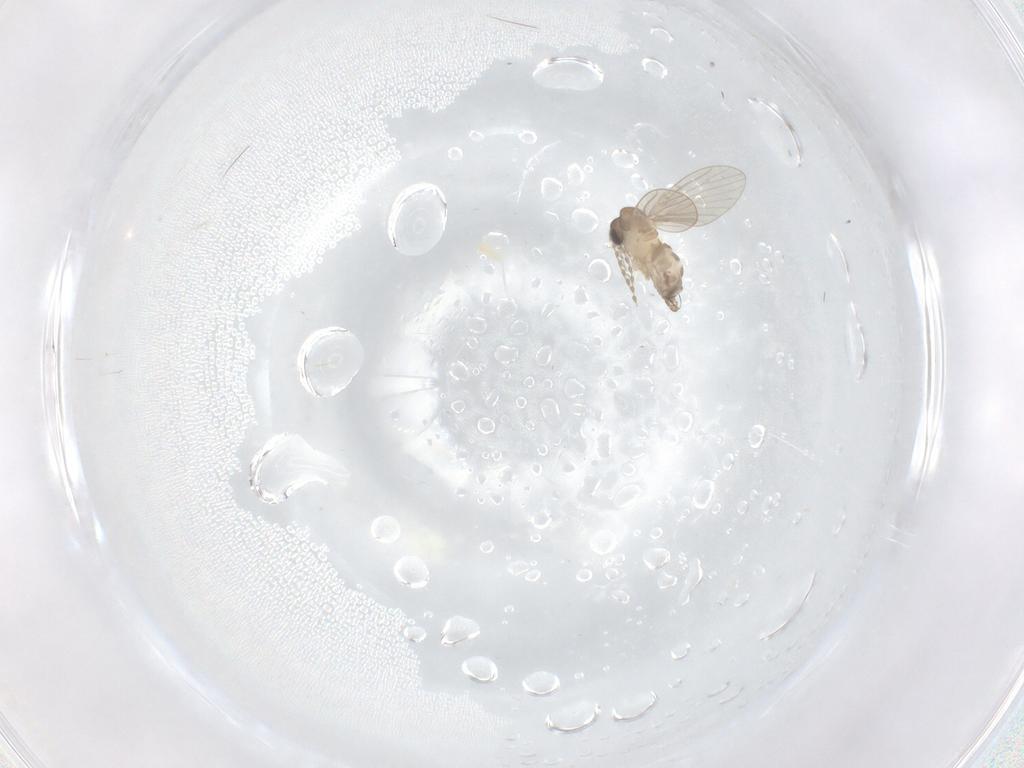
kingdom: Animalia
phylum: Arthropoda
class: Insecta
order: Diptera
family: Psychodidae
